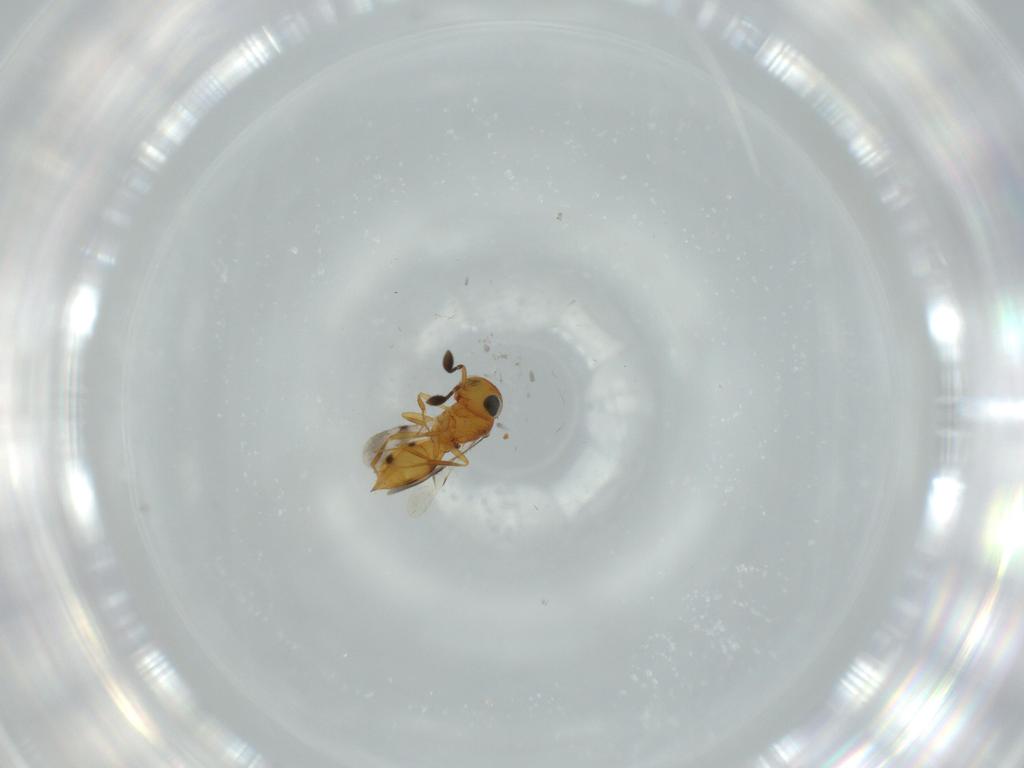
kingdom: Animalia
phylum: Arthropoda
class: Insecta
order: Hymenoptera
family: Scelionidae
